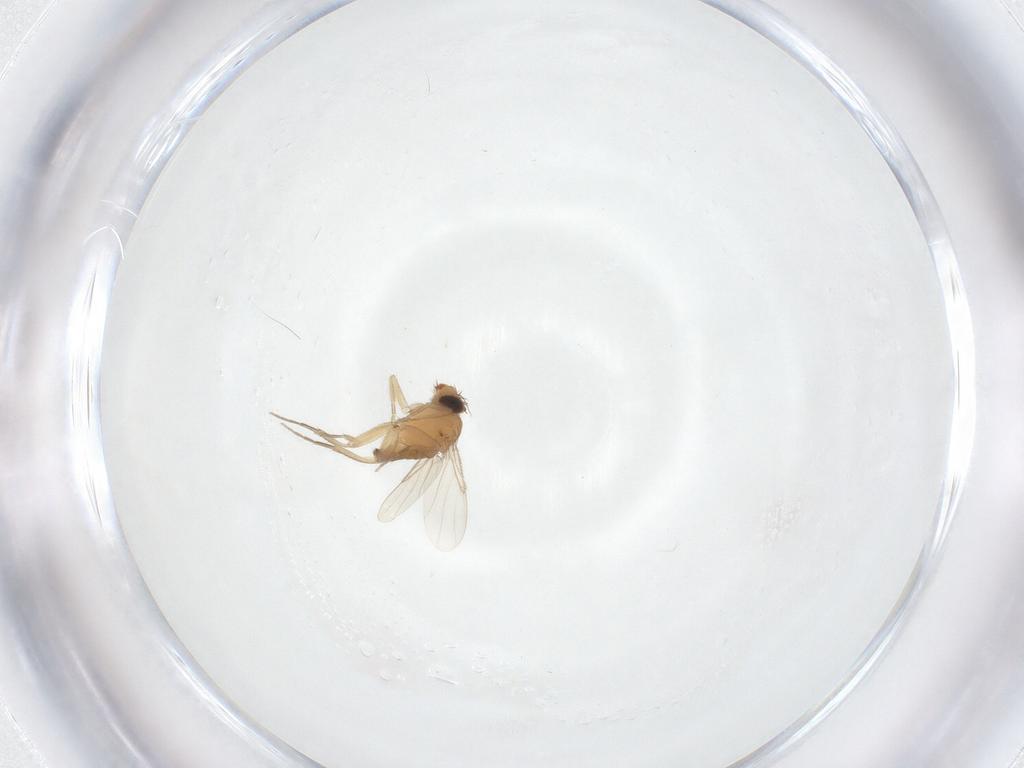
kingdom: Animalia
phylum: Arthropoda
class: Insecta
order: Diptera
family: Phoridae
